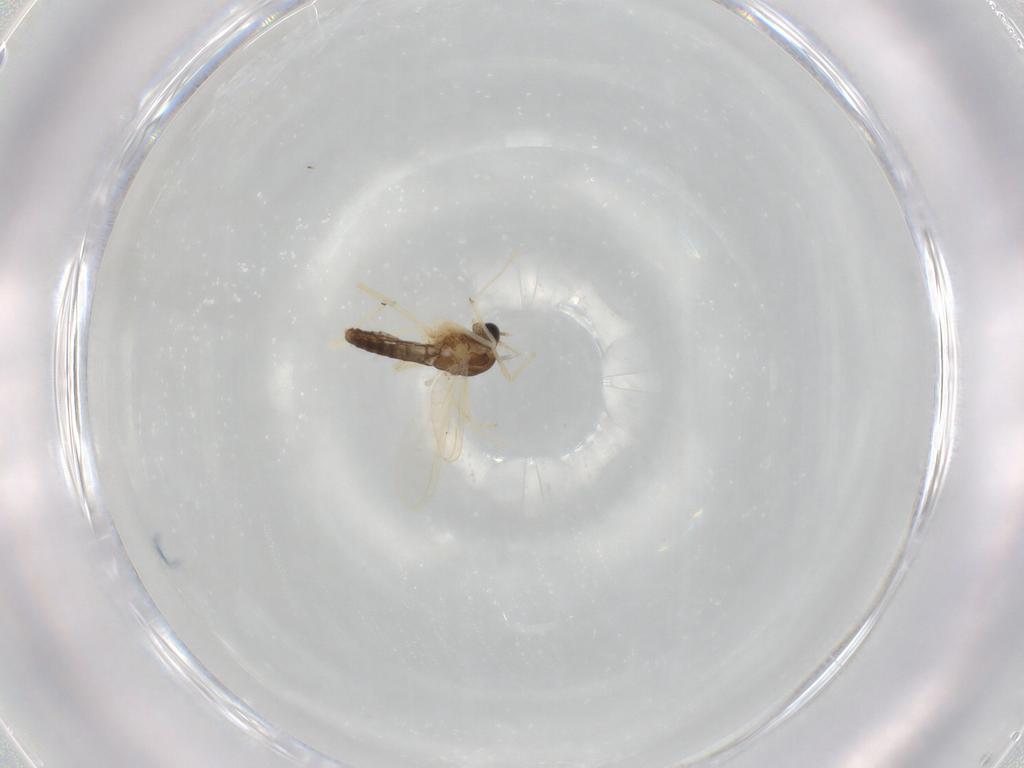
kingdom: Animalia
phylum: Arthropoda
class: Insecta
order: Diptera
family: Chironomidae
